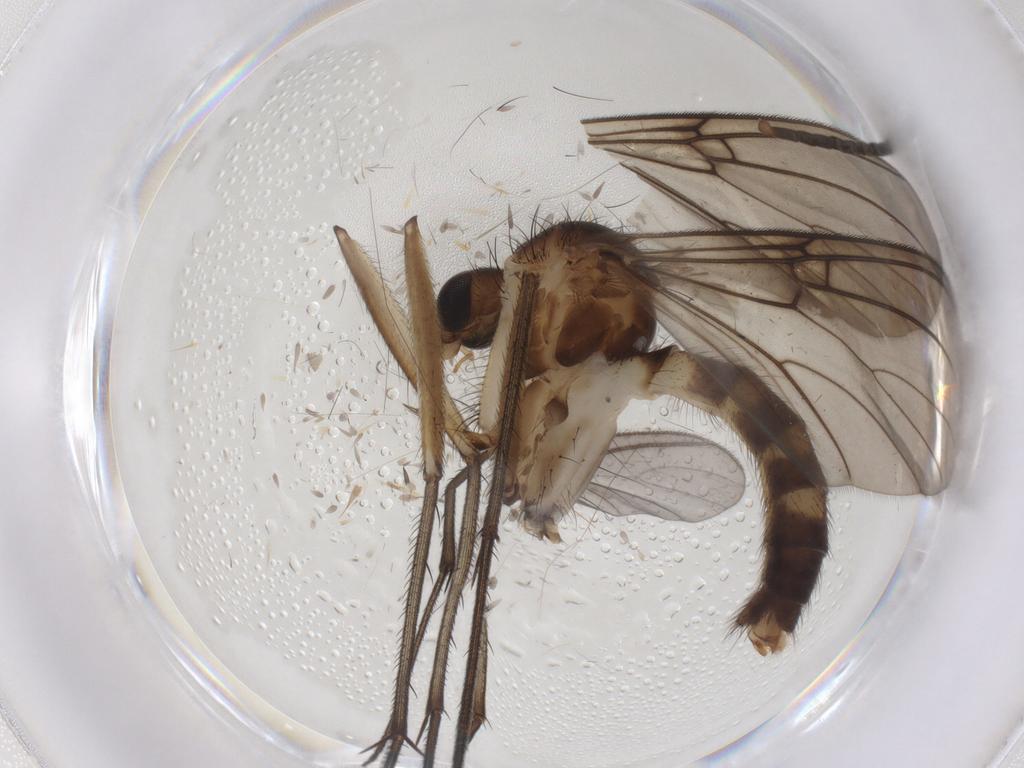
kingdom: Animalia
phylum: Arthropoda
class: Insecta
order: Diptera
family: Mycetophilidae
